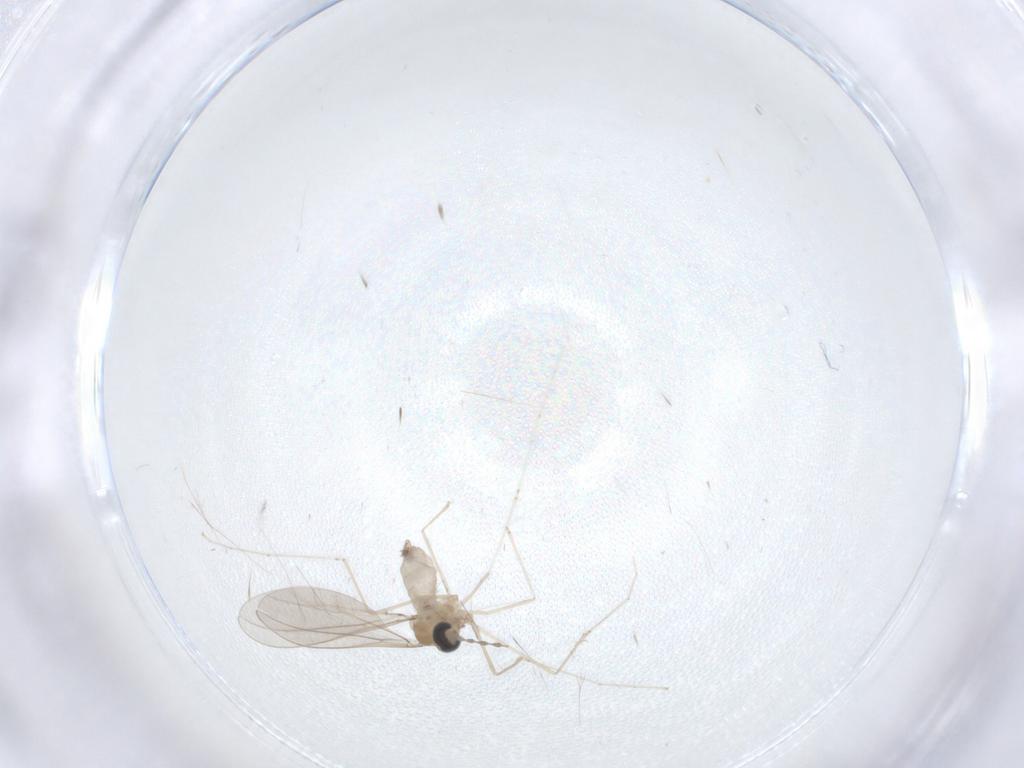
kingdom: Animalia
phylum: Arthropoda
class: Insecta
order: Diptera
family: Cecidomyiidae
